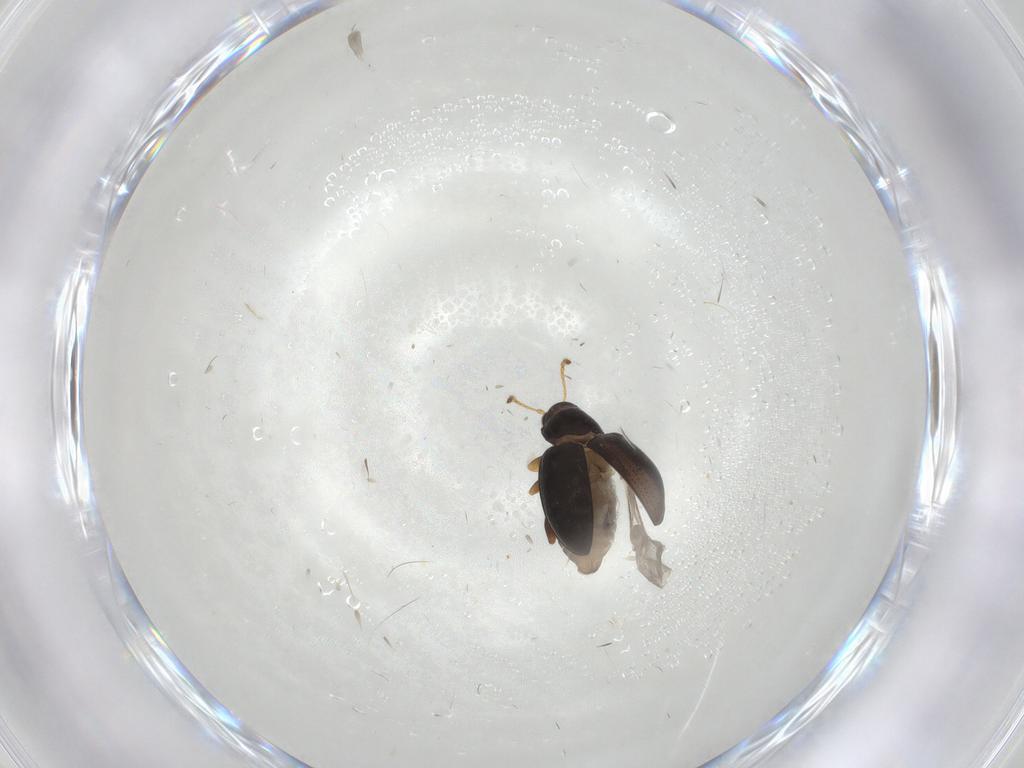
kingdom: Animalia
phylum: Arthropoda
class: Insecta
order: Coleoptera
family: Chrysomelidae
